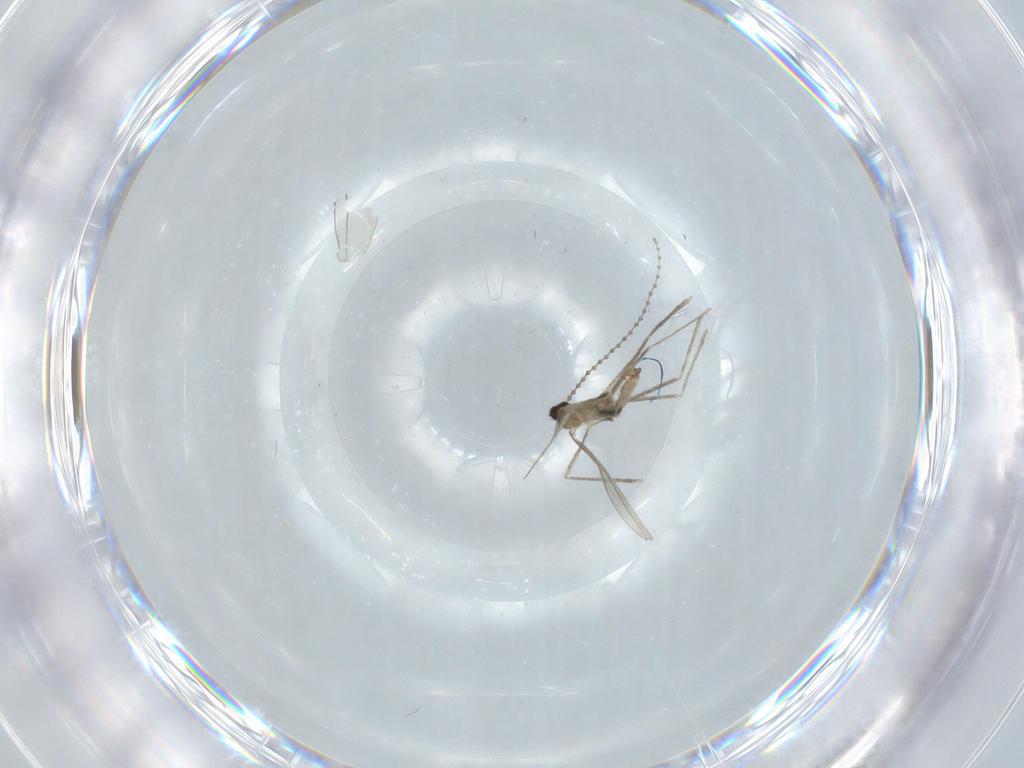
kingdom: Animalia
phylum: Arthropoda
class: Insecta
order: Diptera
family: Cecidomyiidae
